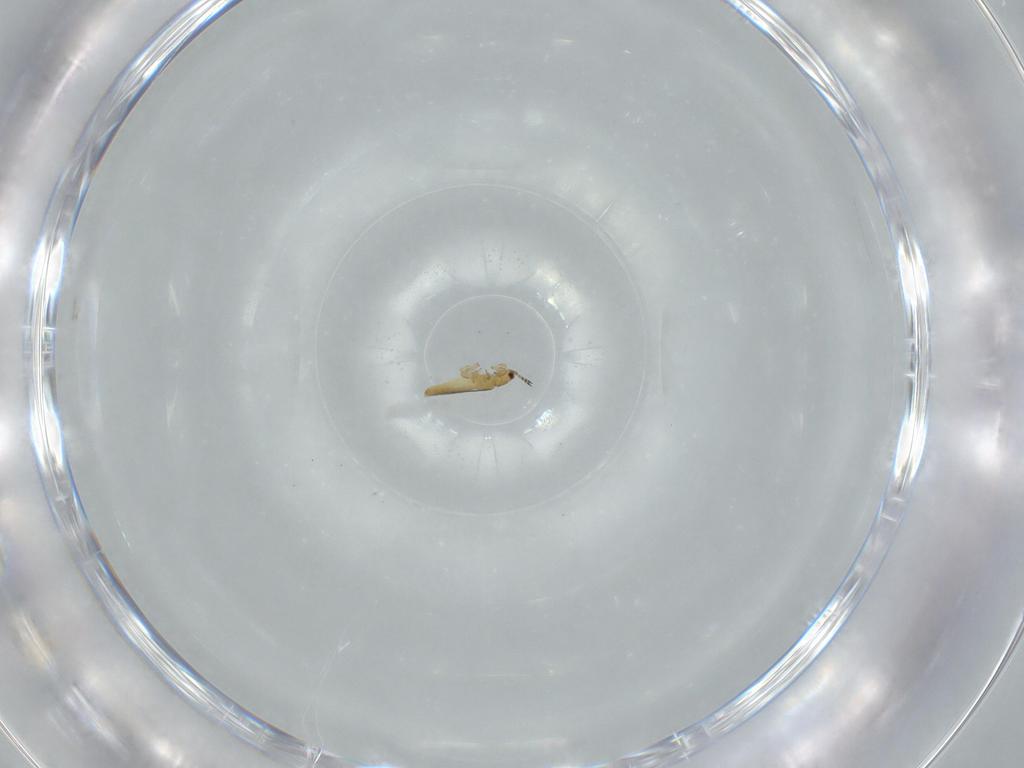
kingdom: Animalia
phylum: Arthropoda
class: Insecta
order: Thysanoptera
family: Thripidae
